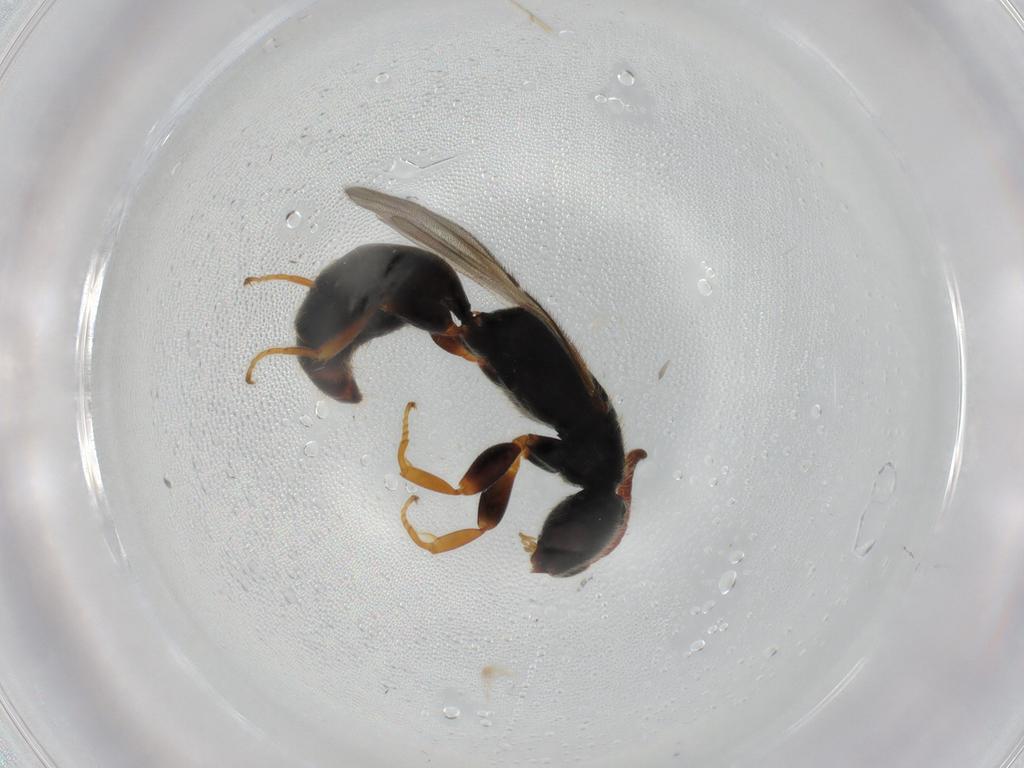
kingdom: Animalia
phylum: Arthropoda
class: Insecta
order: Hymenoptera
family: Bethylidae
